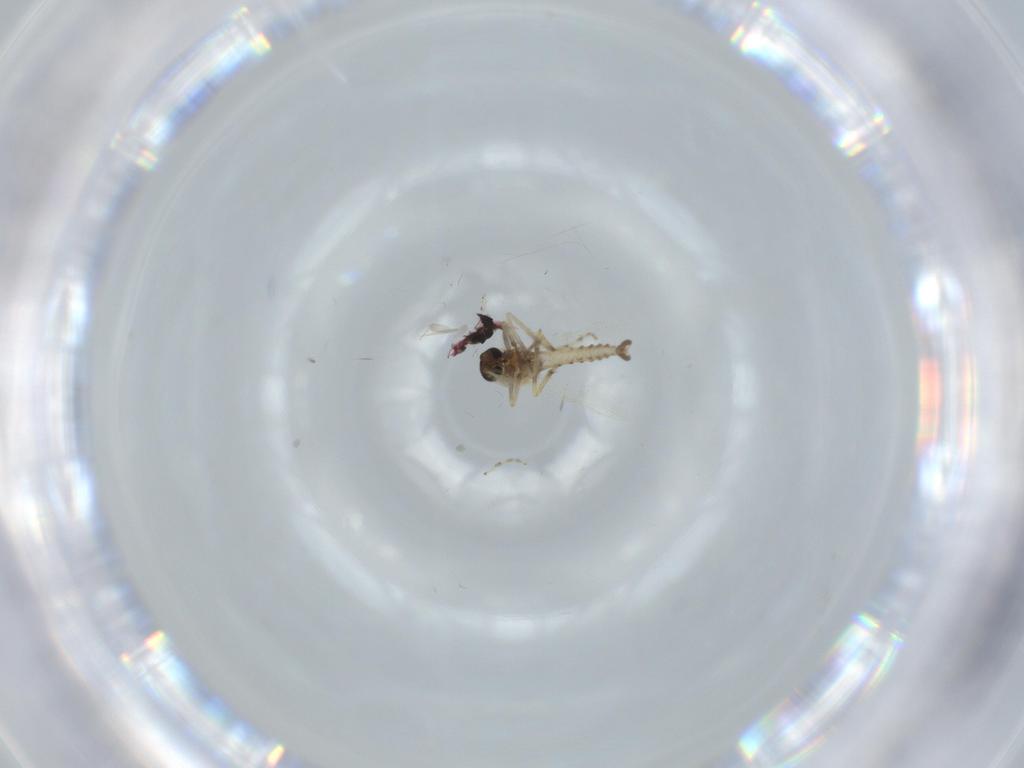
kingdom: Animalia
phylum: Arthropoda
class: Insecta
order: Diptera
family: Ceratopogonidae
